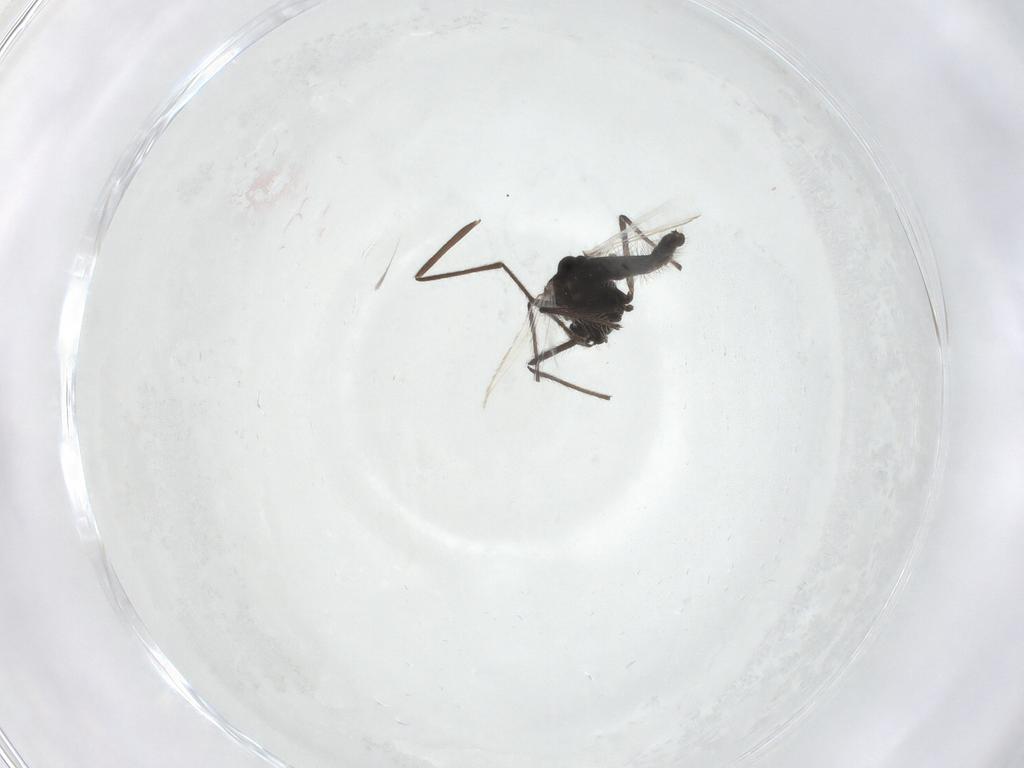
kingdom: Animalia
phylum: Arthropoda
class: Insecta
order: Diptera
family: Cecidomyiidae
